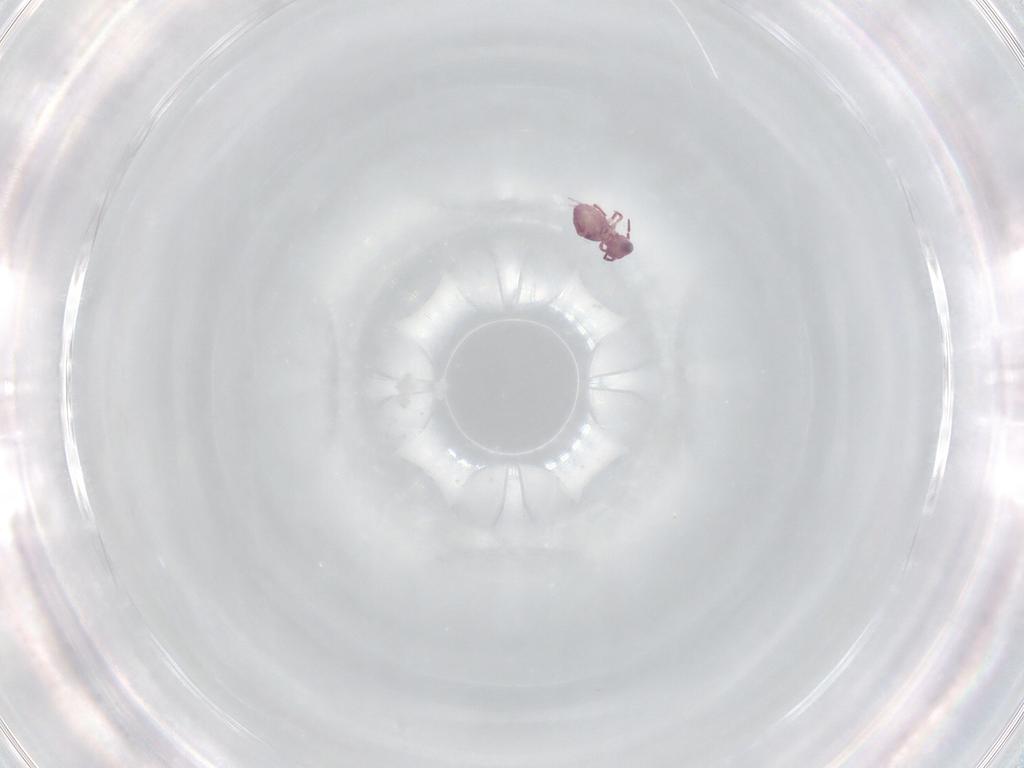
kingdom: Animalia
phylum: Arthropoda
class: Collembola
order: Symphypleona
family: Sminthurididae
